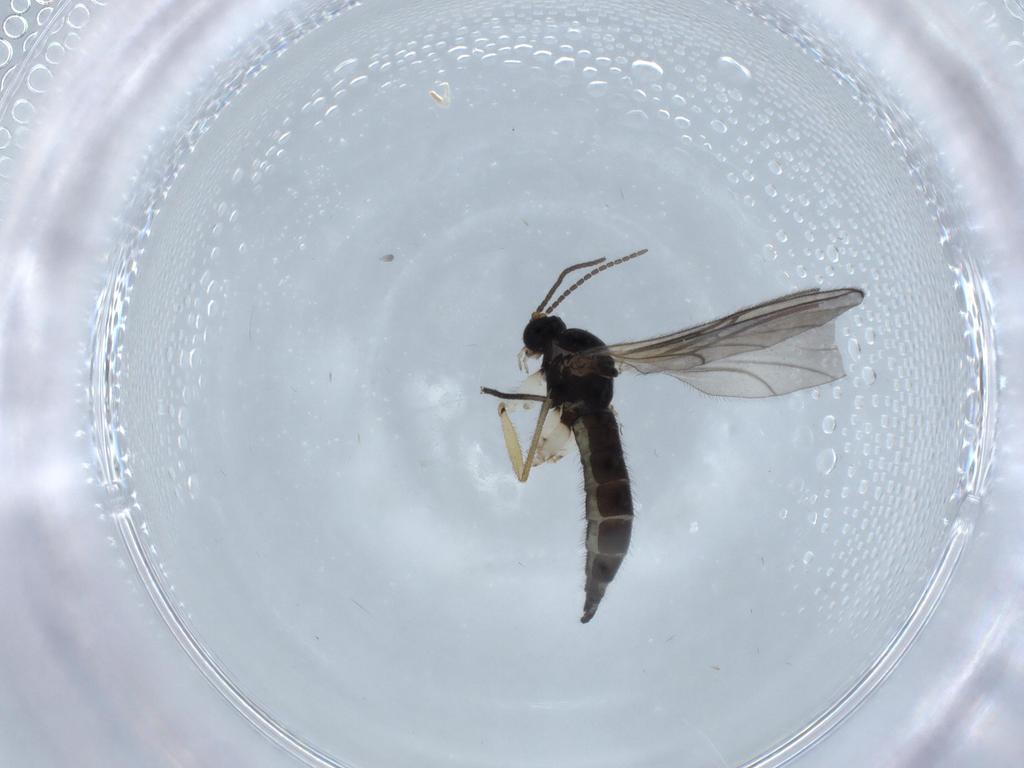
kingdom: Animalia
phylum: Arthropoda
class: Insecta
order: Diptera
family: Sciaridae
